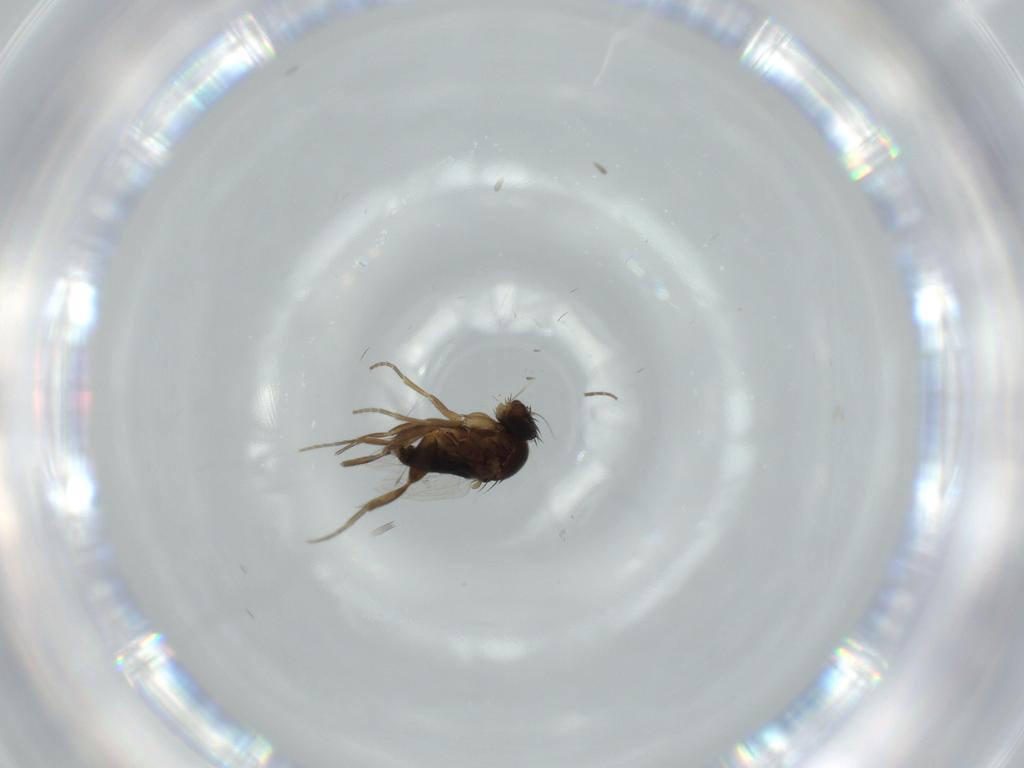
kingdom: Animalia
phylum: Arthropoda
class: Insecta
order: Diptera
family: Phoridae
